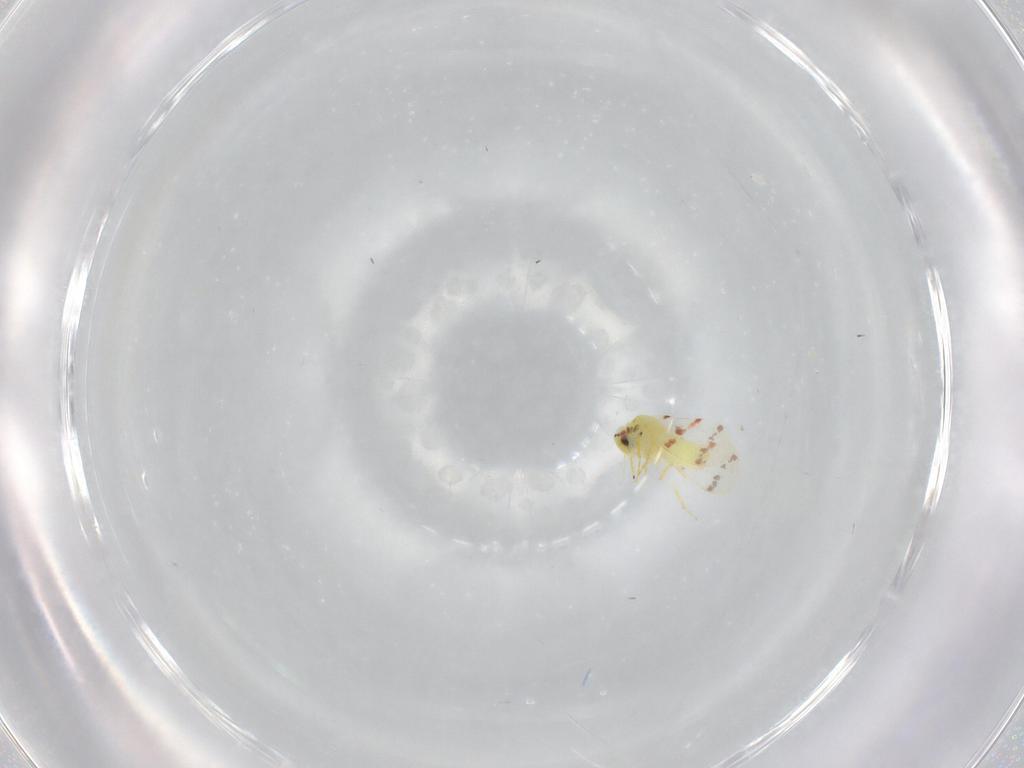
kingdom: Animalia
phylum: Arthropoda
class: Insecta
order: Hemiptera
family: Aleyrodidae
